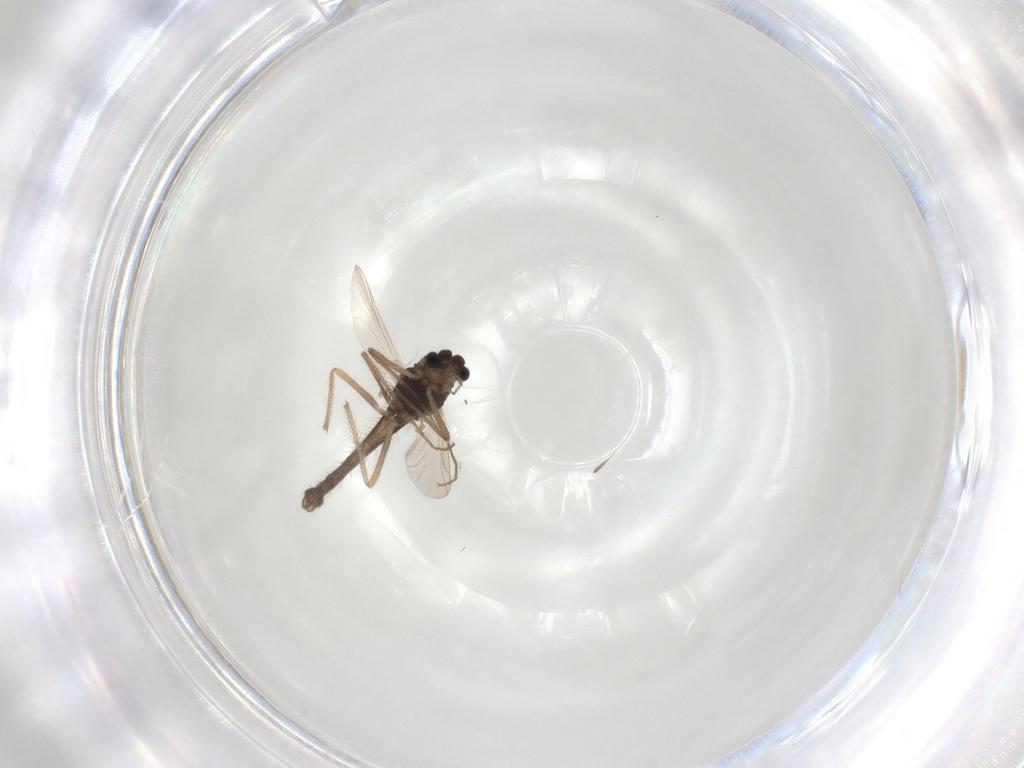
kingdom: Animalia
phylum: Arthropoda
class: Insecta
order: Diptera
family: Chironomidae
